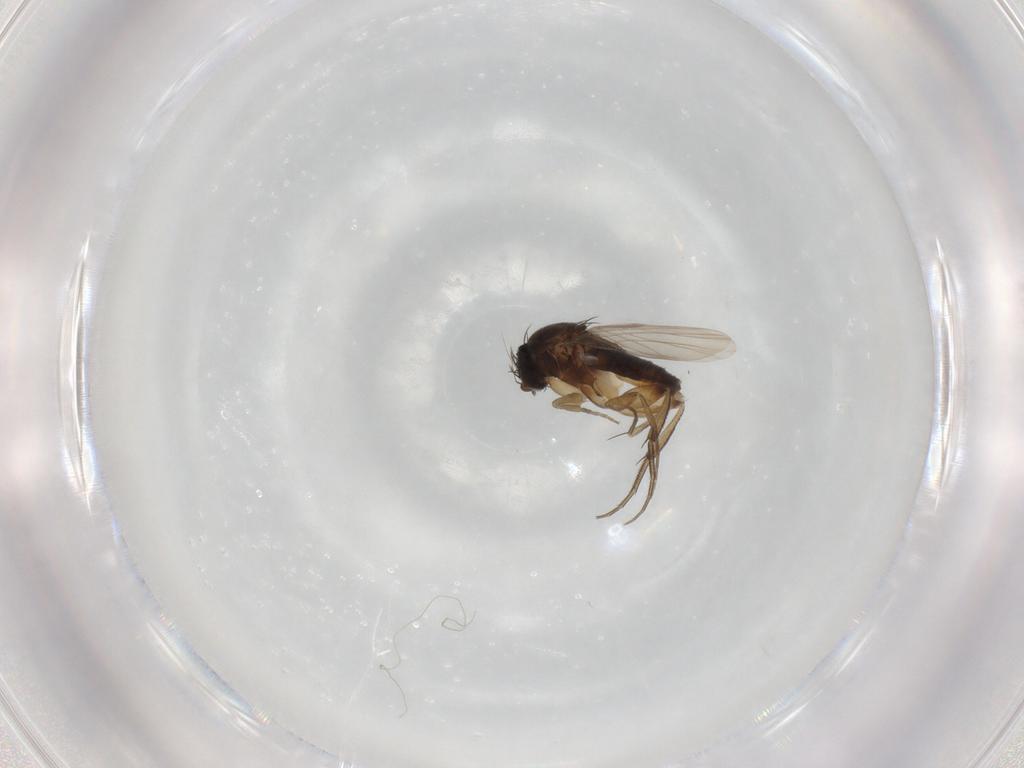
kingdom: Animalia
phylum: Arthropoda
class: Insecta
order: Diptera
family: Phoridae
